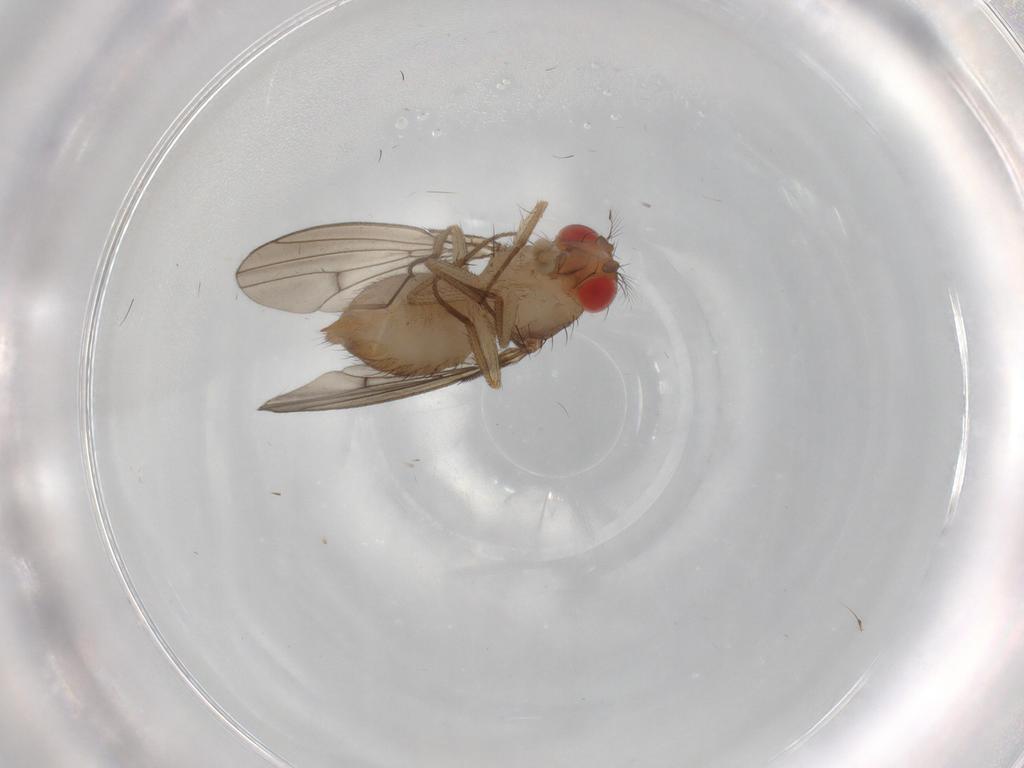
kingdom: Animalia
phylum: Arthropoda
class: Insecta
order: Diptera
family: Drosophilidae
